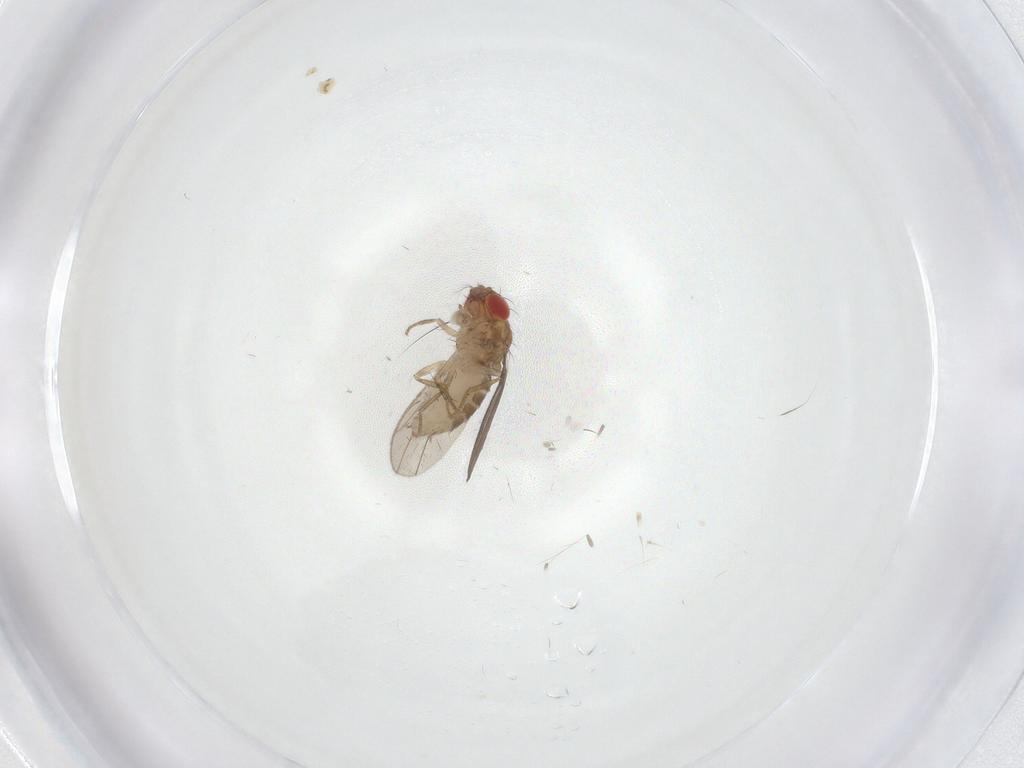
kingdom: Animalia
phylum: Arthropoda
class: Insecta
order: Diptera
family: Drosophilidae
